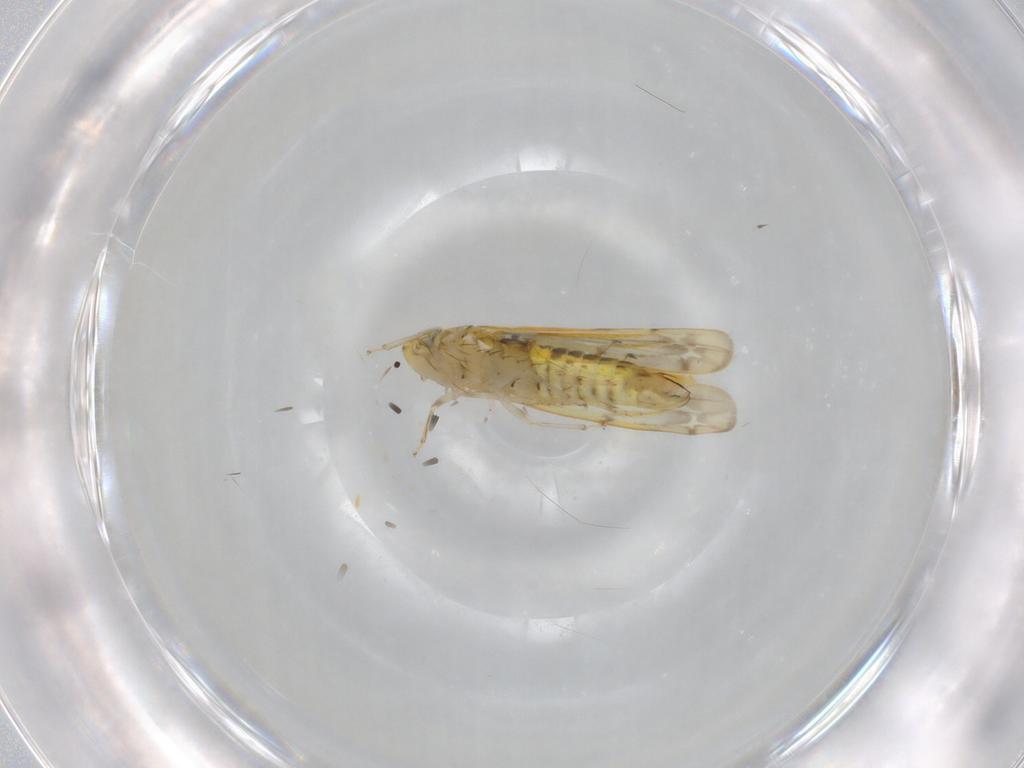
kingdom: Animalia
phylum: Arthropoda
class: Insecta
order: Hemiptera
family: Cicadellidae
